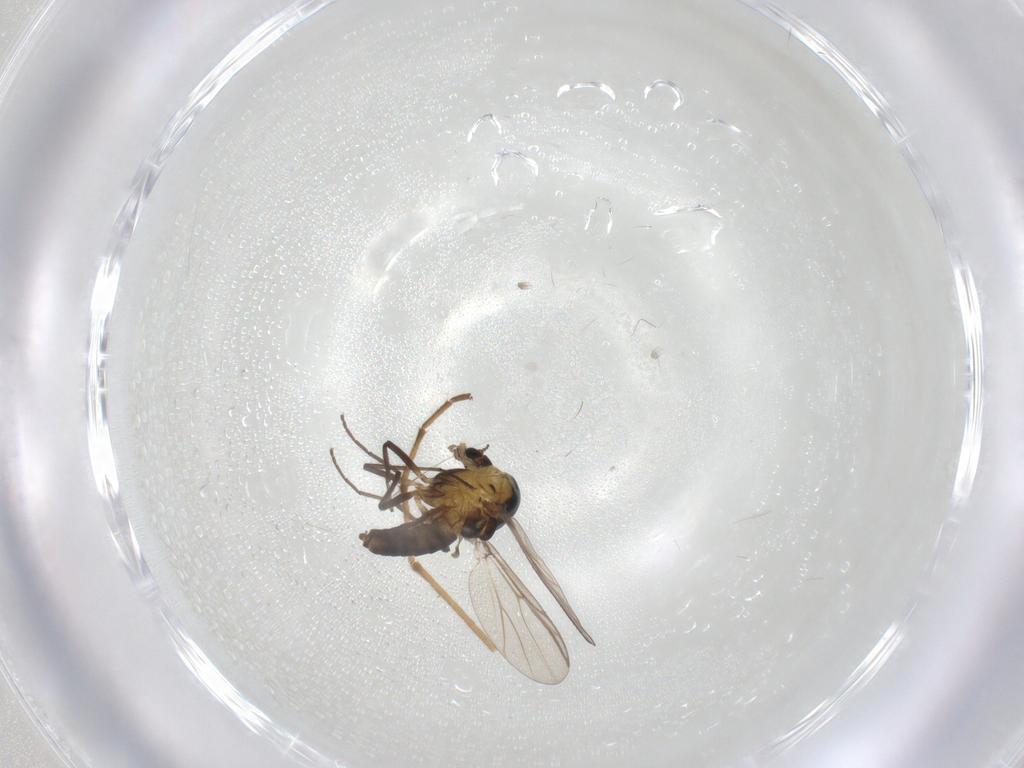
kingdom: Animalia
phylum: Arthropoda
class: Insecta
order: Diptera
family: Chironomidae
